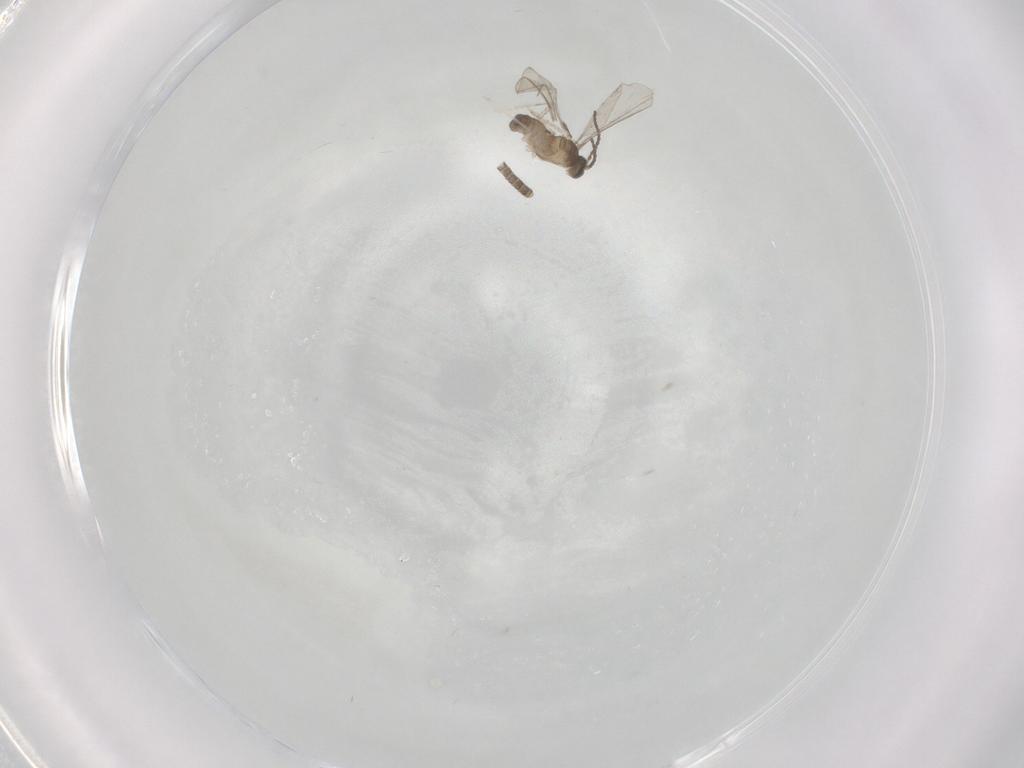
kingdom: Animalia
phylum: Arthropoda
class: Insecta
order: Diptera
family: Cecidomyiidae
